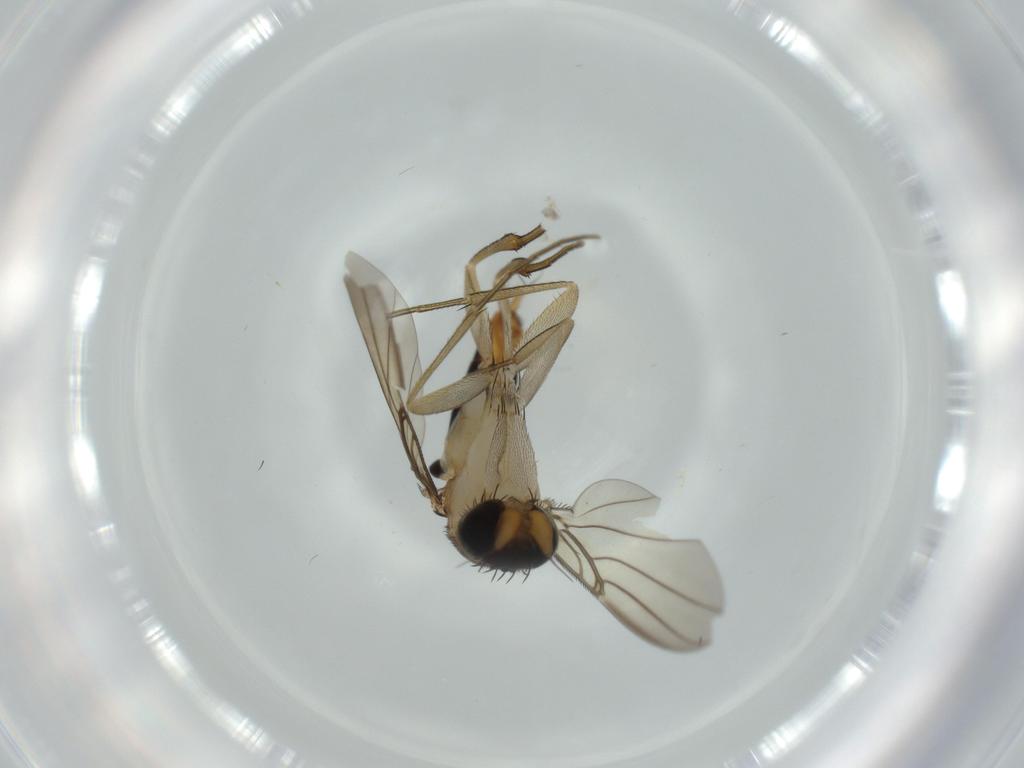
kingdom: Animalia
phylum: Arthropoda
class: Insecta
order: Diptera
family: Phoridae
